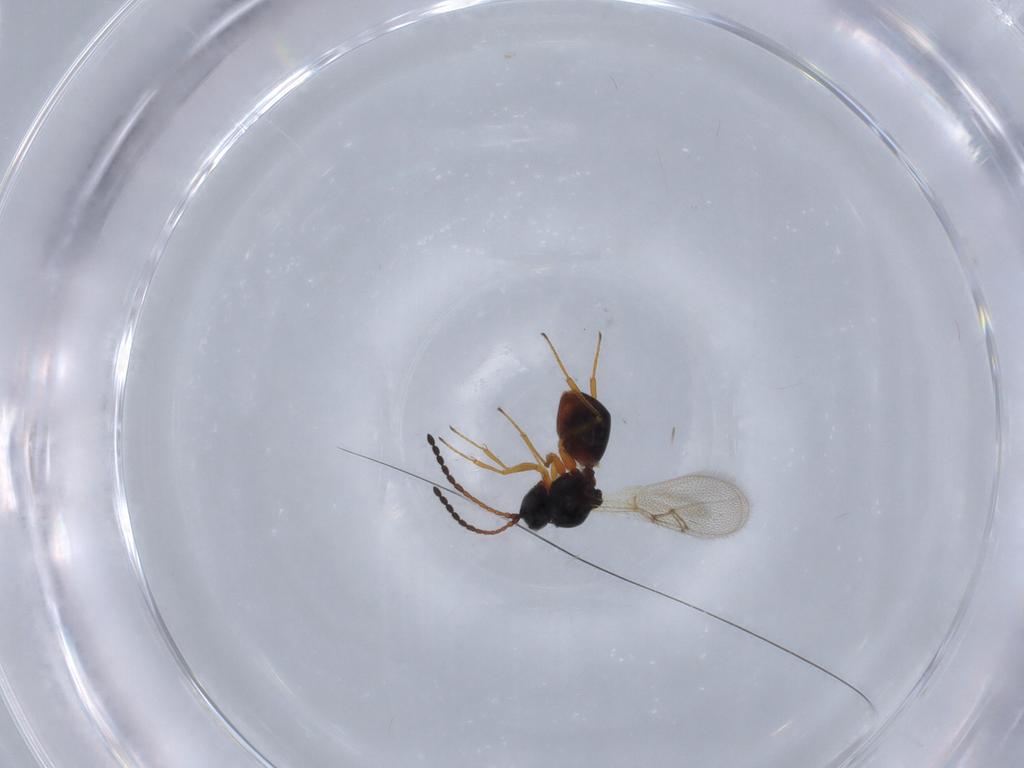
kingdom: Animalia
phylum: Arthropoda
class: Insecta
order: Hymenoptera
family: Figitidae
